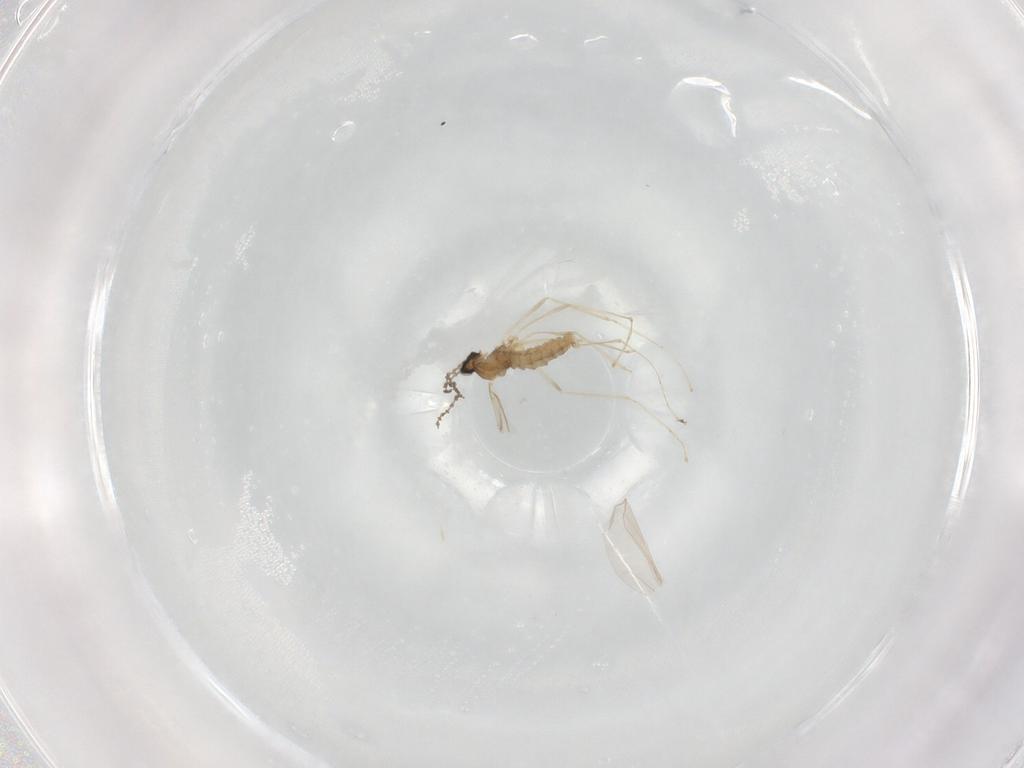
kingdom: Animalia
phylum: Arthropoda
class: Insecta
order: Diptera
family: Cecidomyiidae
